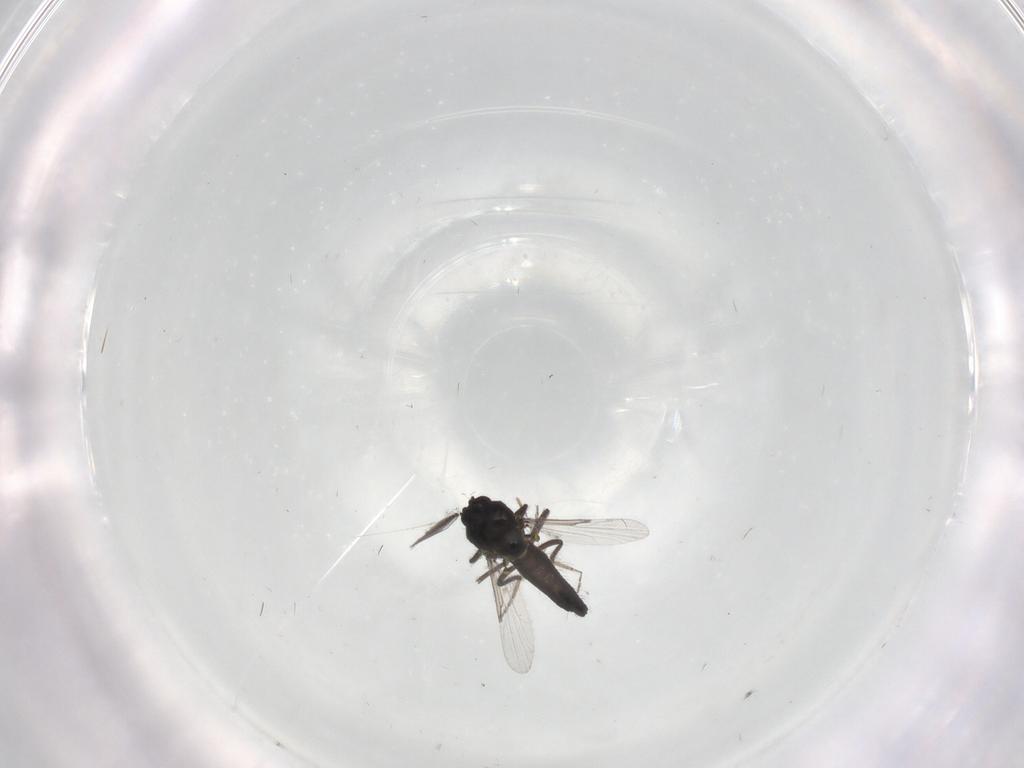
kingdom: Animalia
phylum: Arthropoda
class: Insecta
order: Diptera
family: Ceratopogonidae
